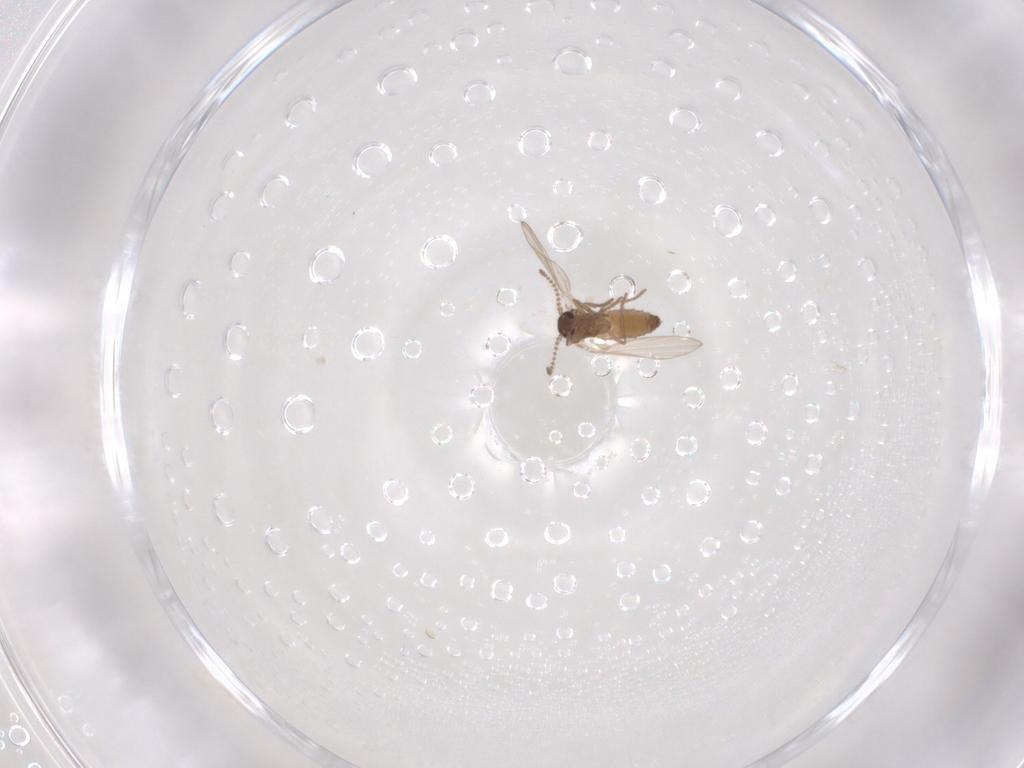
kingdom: Animalia
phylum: Arthropoda
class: Insecta
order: Diptera
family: Psychodidae
